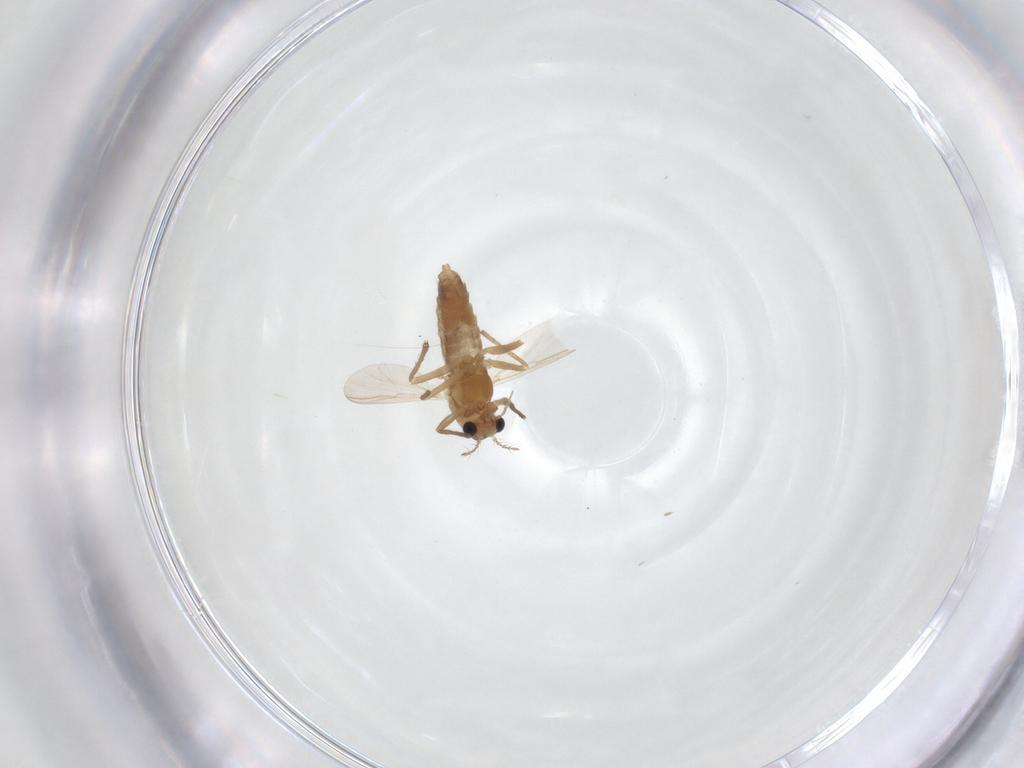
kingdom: Animalia
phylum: Arthropoda
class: Insecta
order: Diptera
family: Chironomidae
